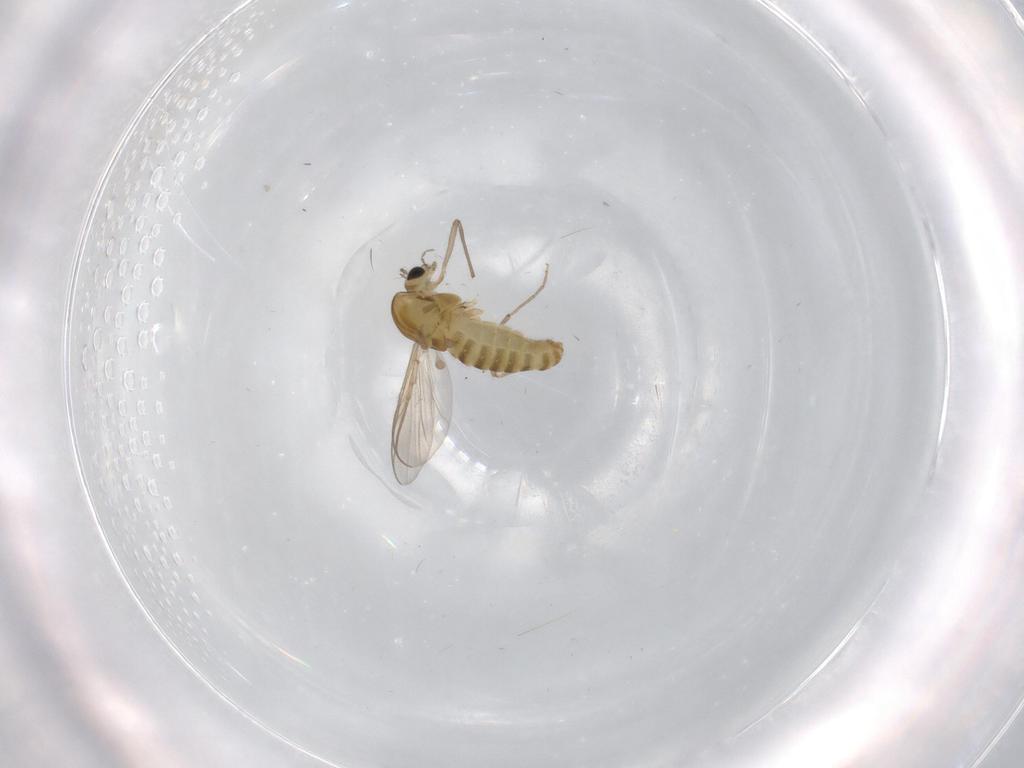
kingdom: Animalia
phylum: Arthropoda
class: Insecta
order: Diptera
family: Chironomidae
